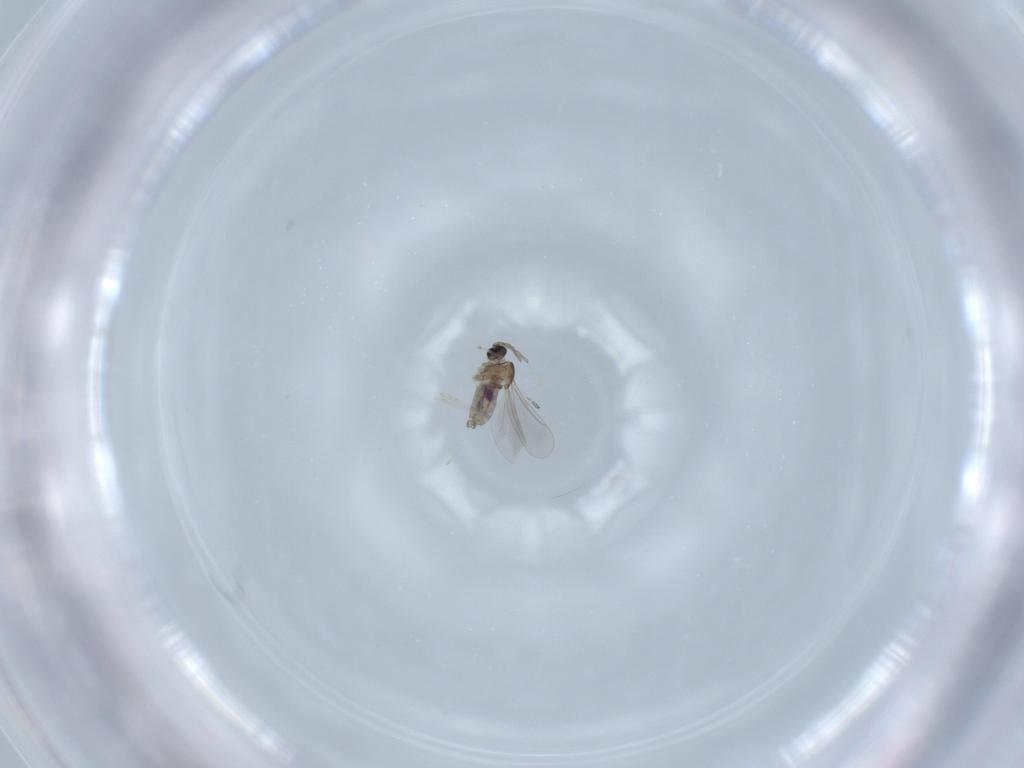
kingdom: Animalia
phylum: Arthropoda
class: Insecta
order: Diptera
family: Cecidomyiidae
